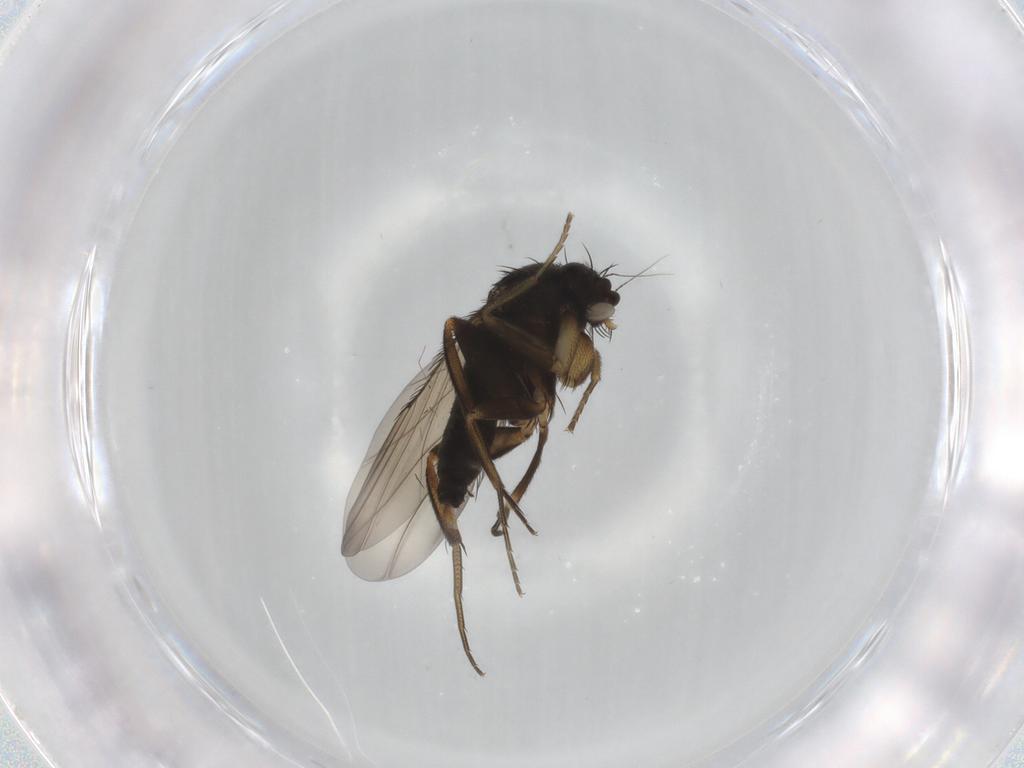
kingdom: Animalia
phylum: Arthropoda
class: Insecta
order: Diptera
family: Phoridae
